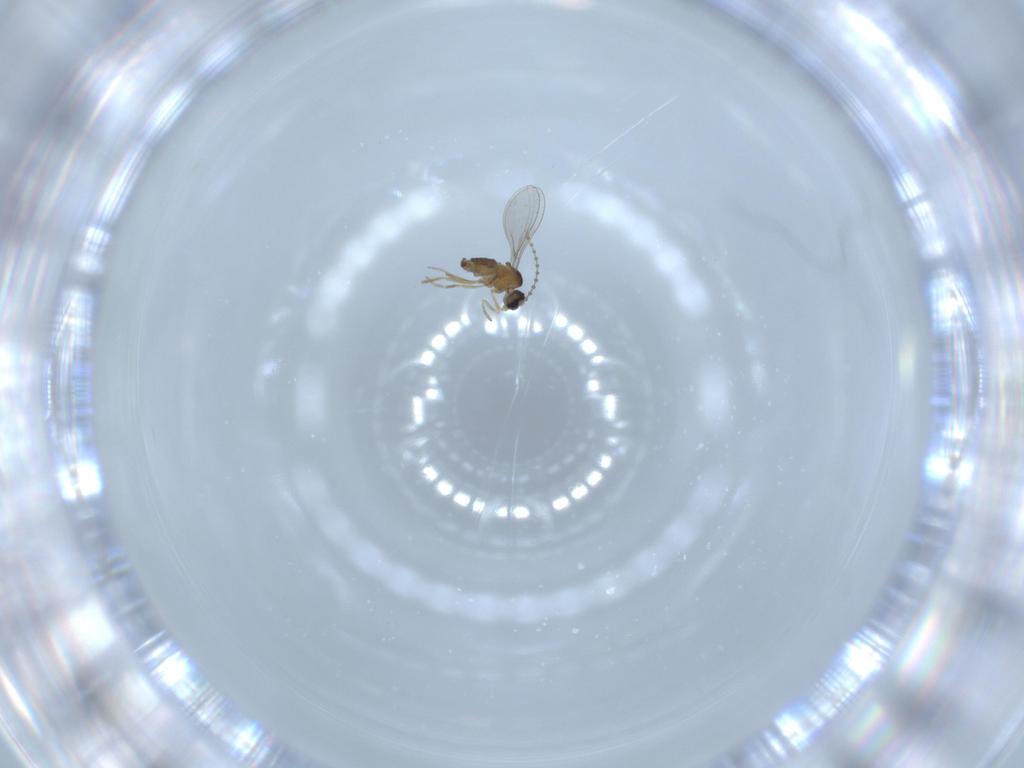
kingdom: Animalia
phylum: Arthropoda
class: Insecta
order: Diptera
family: Cecidomyiidae
